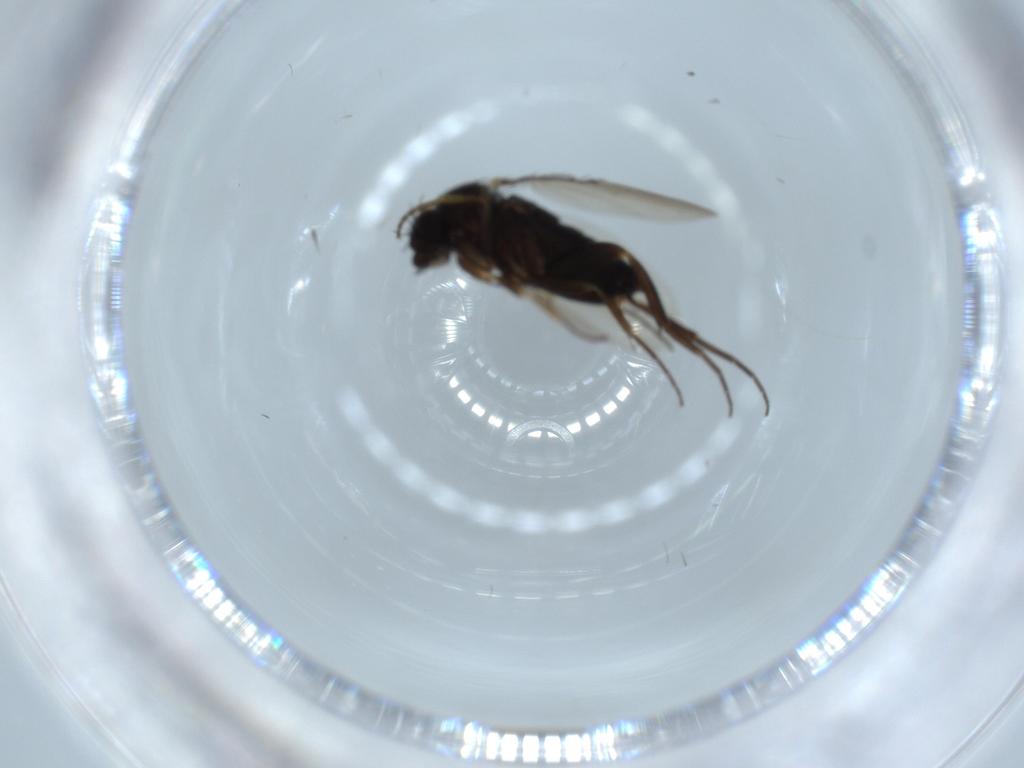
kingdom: Animalia
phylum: Arthropoda
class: Insecta
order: Diptera
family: Phoridae
